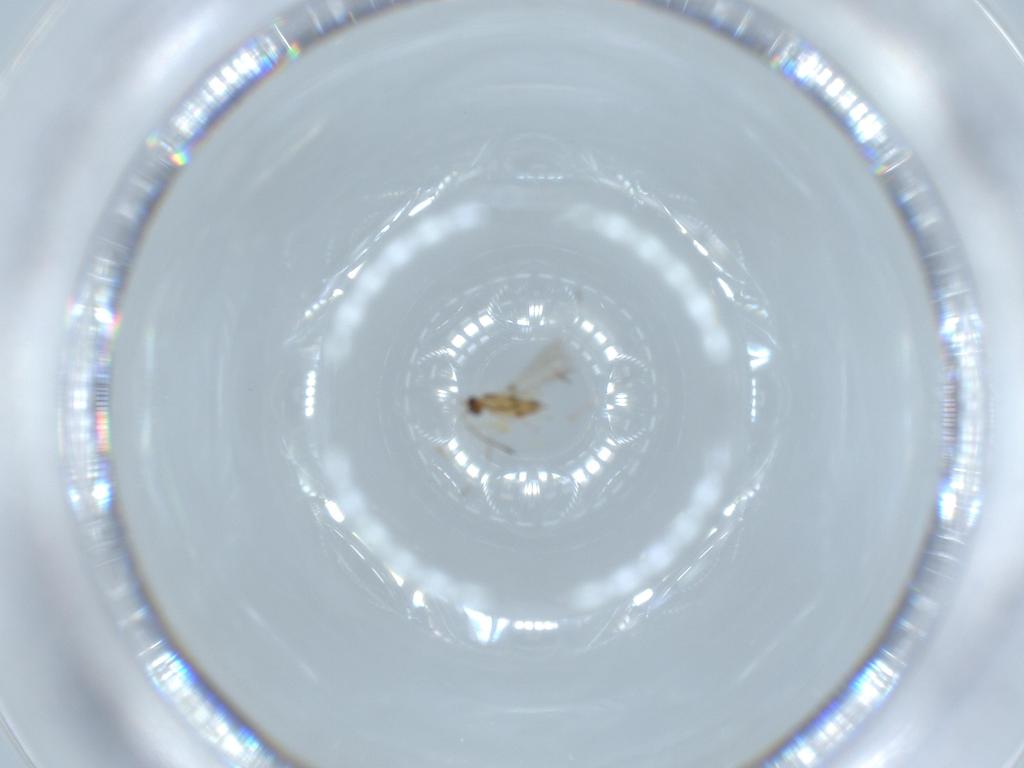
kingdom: Animalia
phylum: Arthropoda
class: Insecta
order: Hymenoptera
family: Mymaridae
